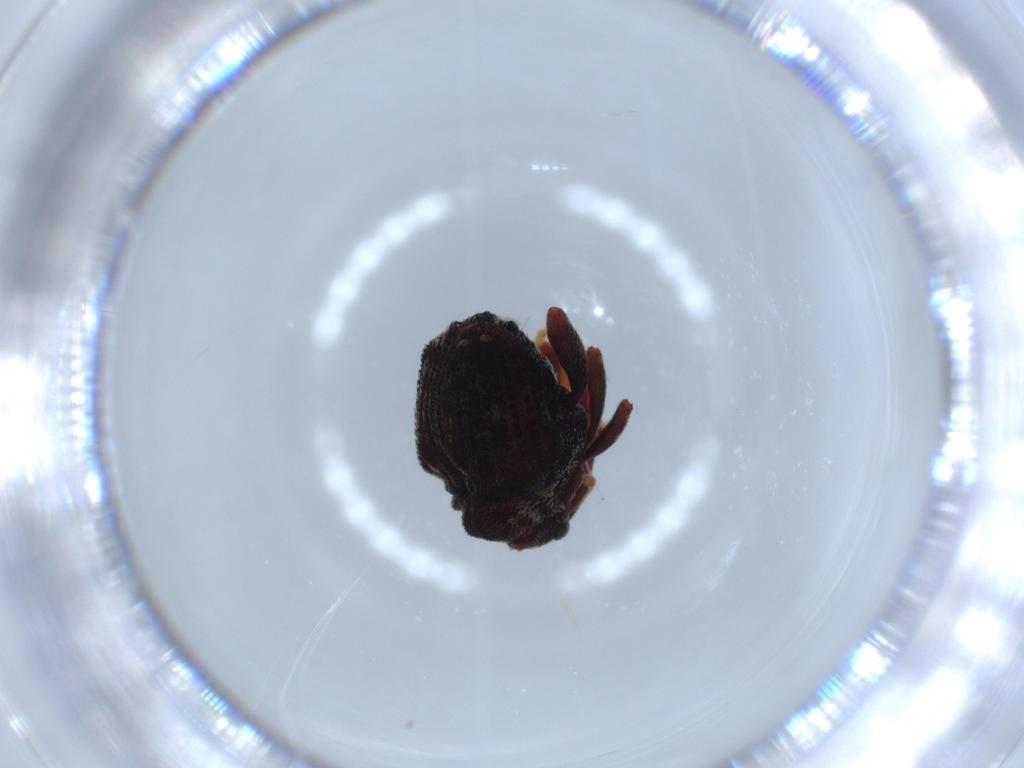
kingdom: Animalia
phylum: Arthropoda
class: Insecta
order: Coleoptera
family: Curculionidae
